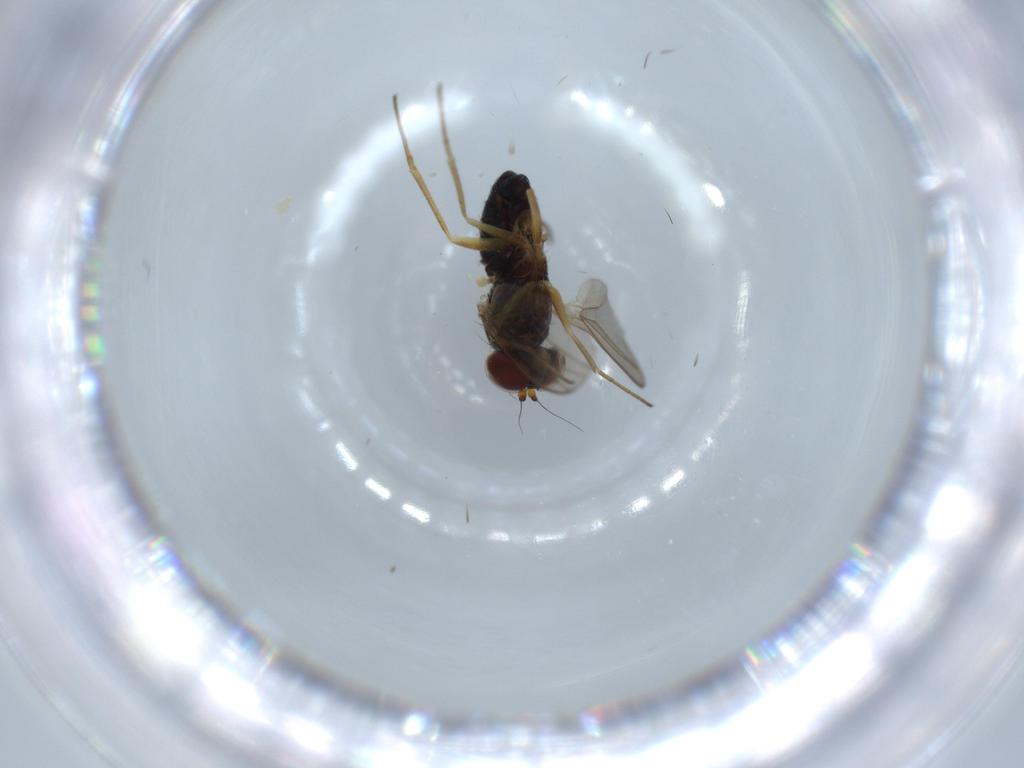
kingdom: Animalia
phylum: Arthropoda
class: Insecta
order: Diptera
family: Dolichopodidae
